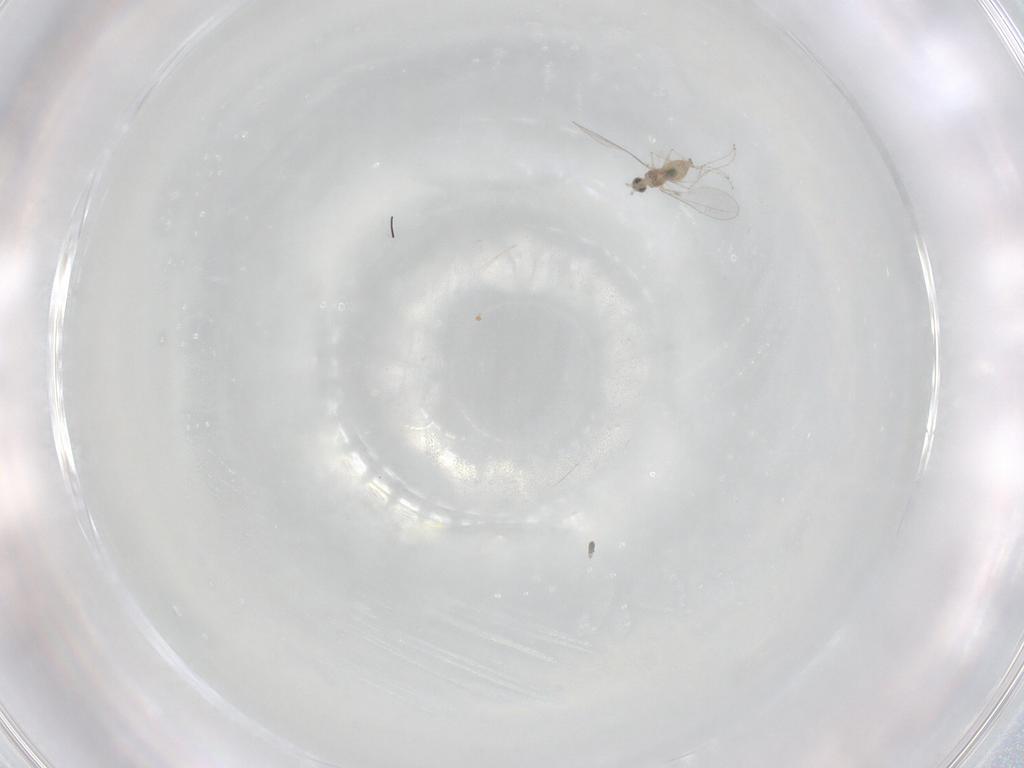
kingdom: Animalia
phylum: Arthropoda
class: Insecta
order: Diptera
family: Cecidomyiidae
